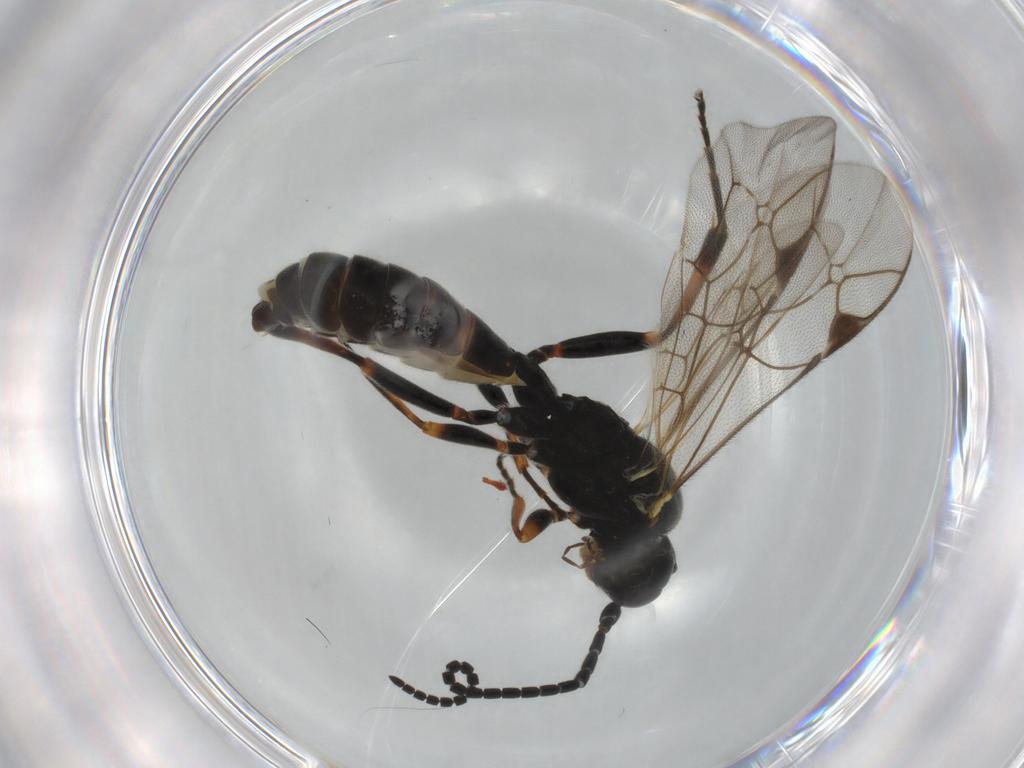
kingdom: Animalia
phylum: Arthropoda
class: Insecta
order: Hymenoptera
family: Ichneumonidae
